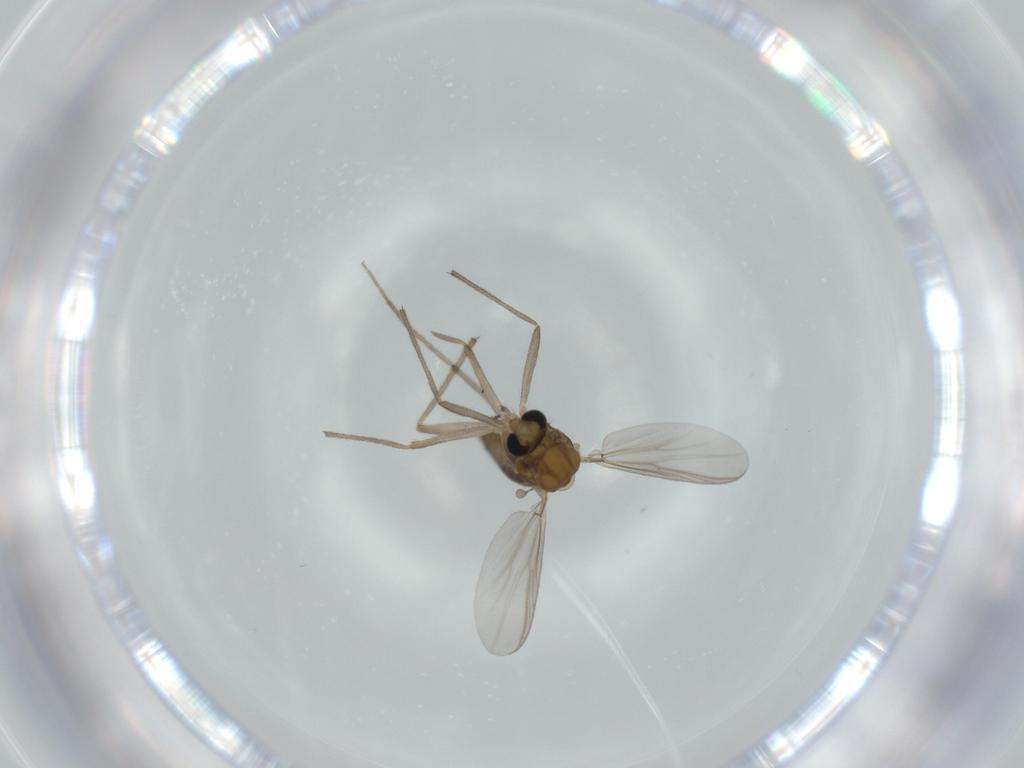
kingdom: Animalia
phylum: Arthropoda
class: Insecta
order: Diptera
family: Chironomidae
